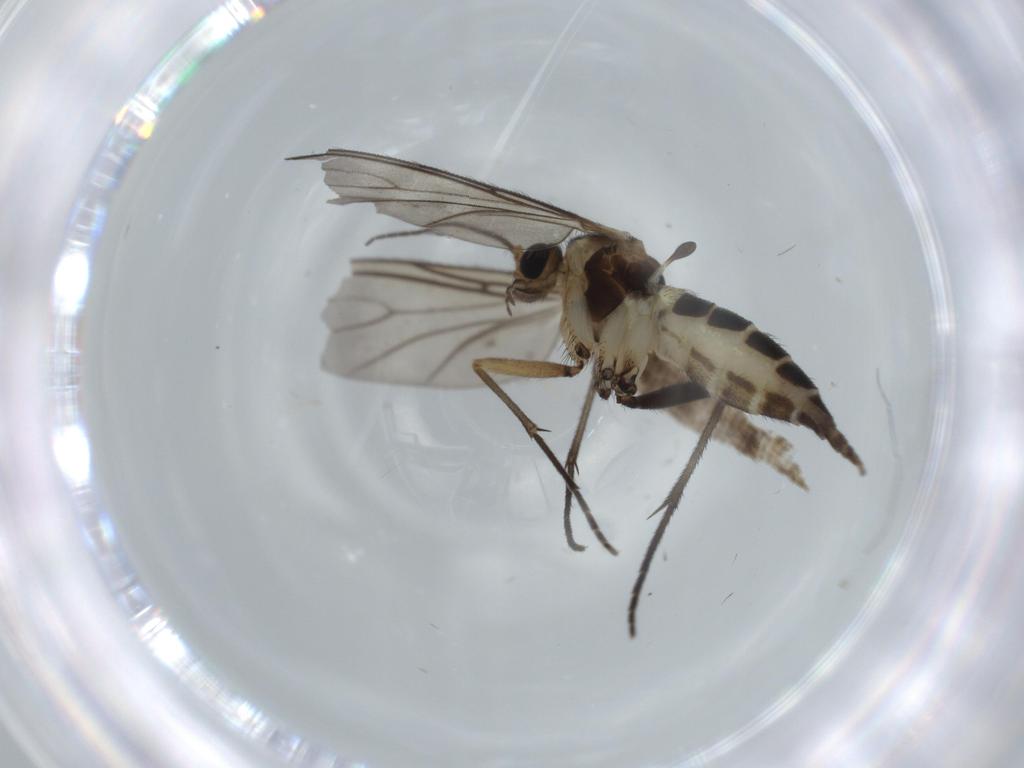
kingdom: Animalia
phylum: Arthropoda
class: Insecta
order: Diptera
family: Sciaridae
